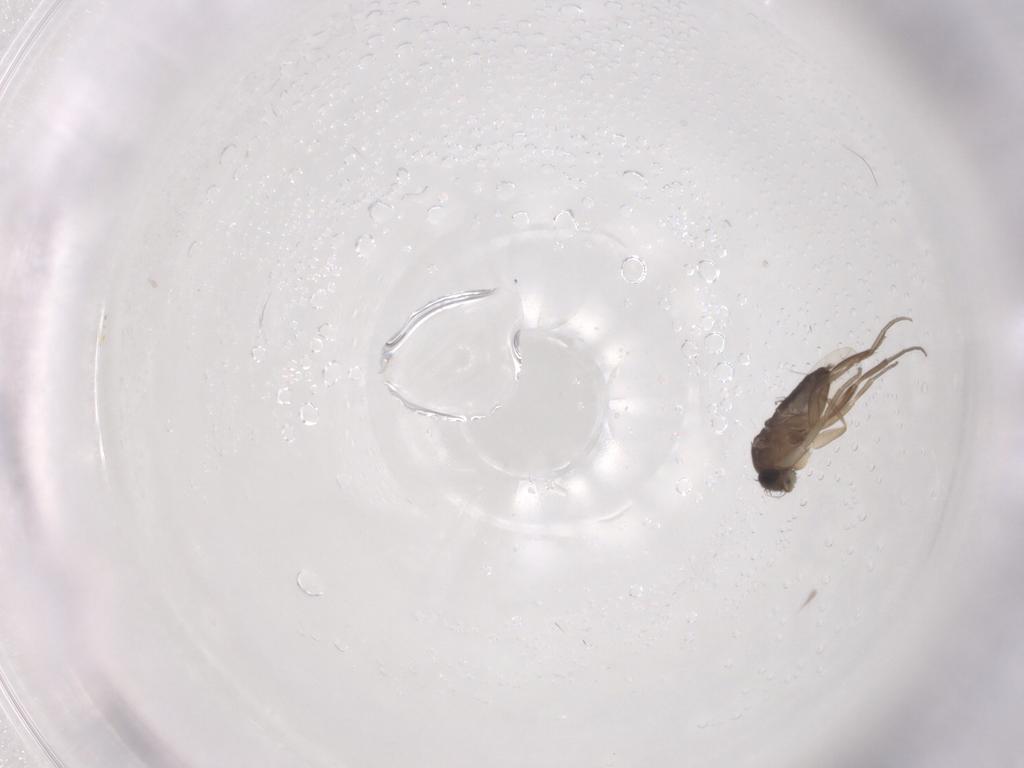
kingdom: Animalia
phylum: Arthropoda
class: Insecta
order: Diptera
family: Phoridae
